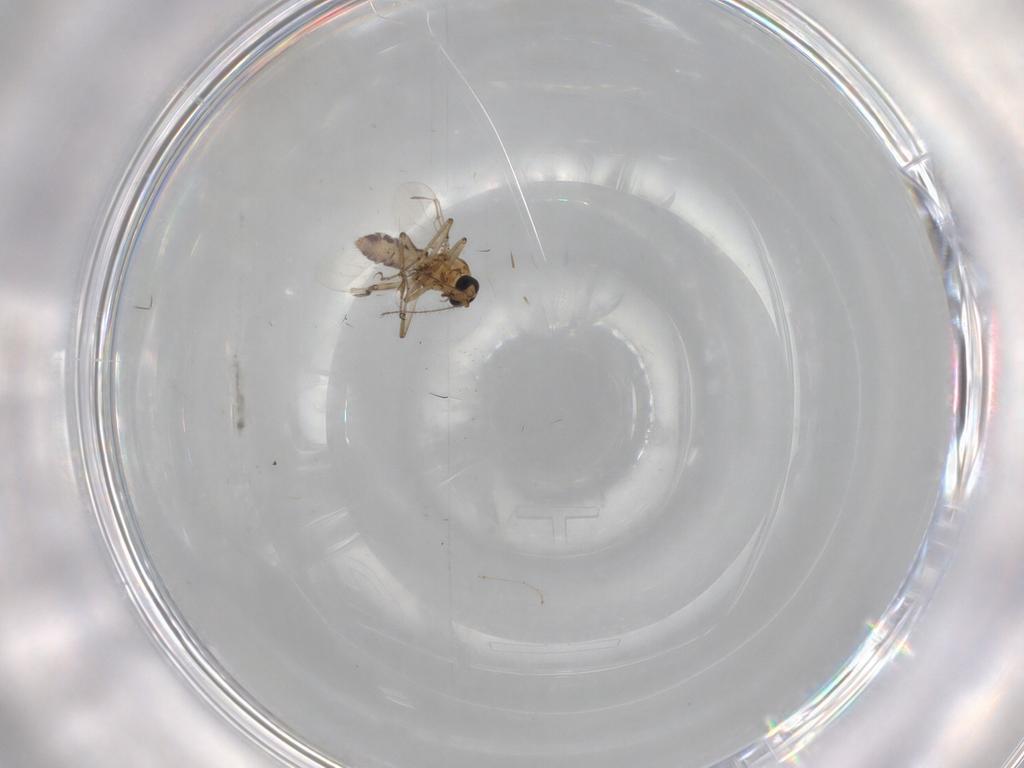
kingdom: Animalia
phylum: Arthropoda
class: Insecta
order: Diptera
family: Ceratopogonidae
